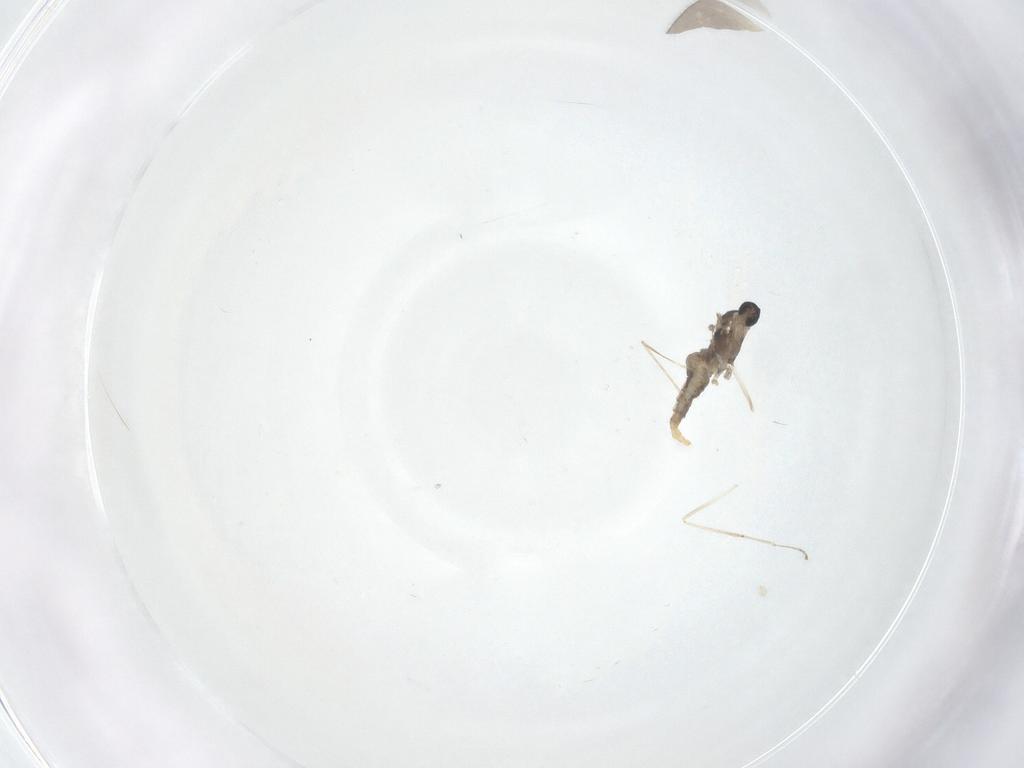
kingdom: Animalia
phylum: Arthropoda
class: Insecta
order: Diptera
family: Cecidomyiidae
